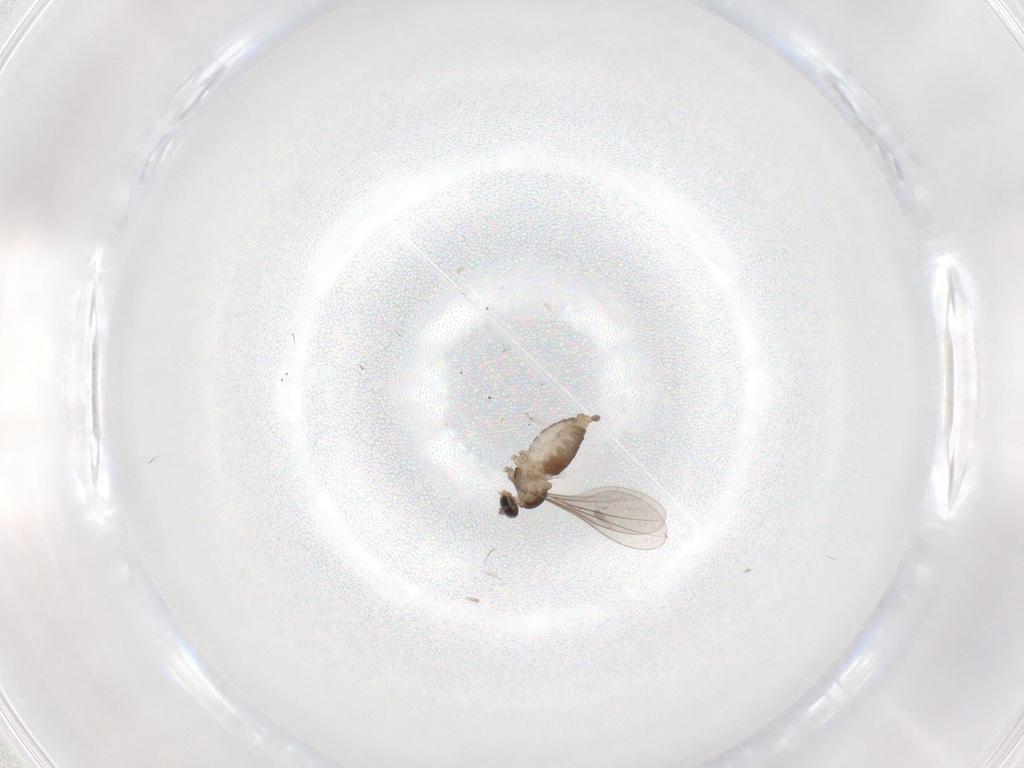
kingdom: Animalia
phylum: Arthropoda
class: Insecta
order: Diptera
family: Cecidomyiidae
